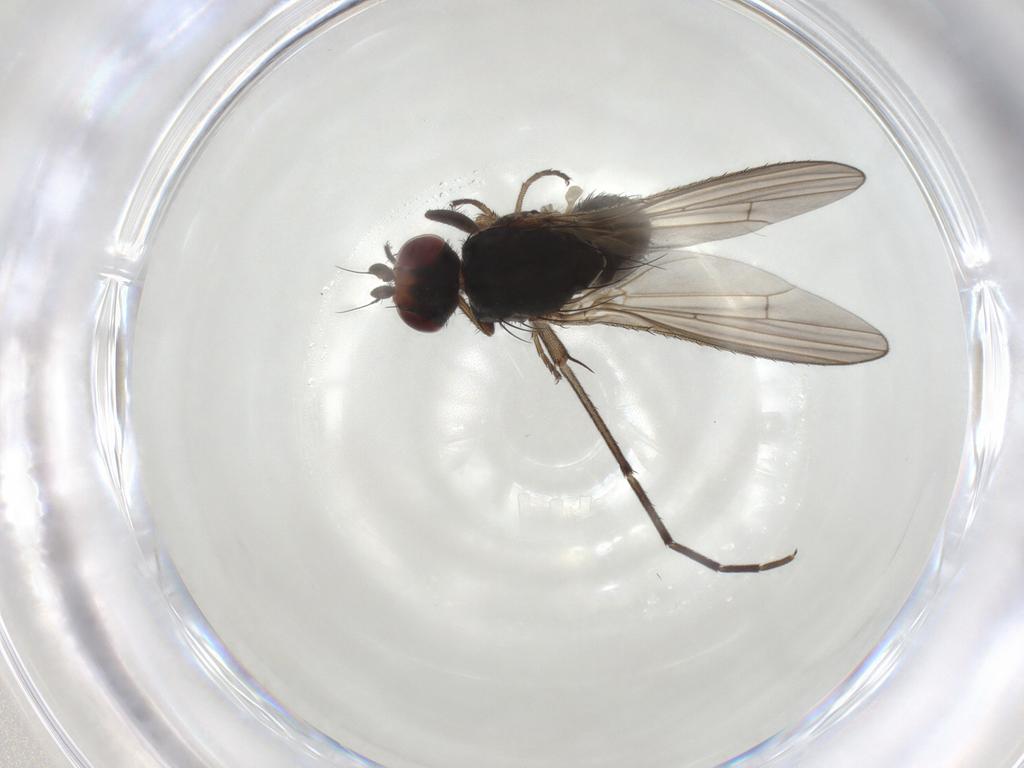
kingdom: Animalia
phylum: Arthropoda
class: Insecta
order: Diptera
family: Heleomyzidae
